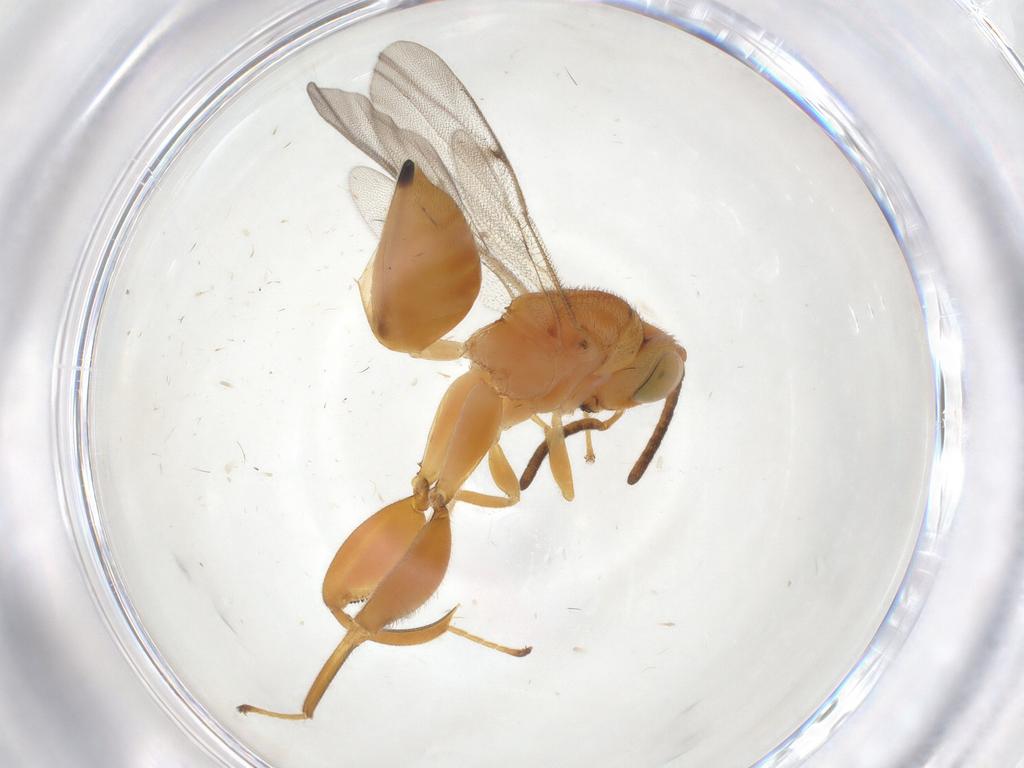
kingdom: Animalia
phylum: Arthropoda
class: Insecta
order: Hymenoptera
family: Chalcididae
